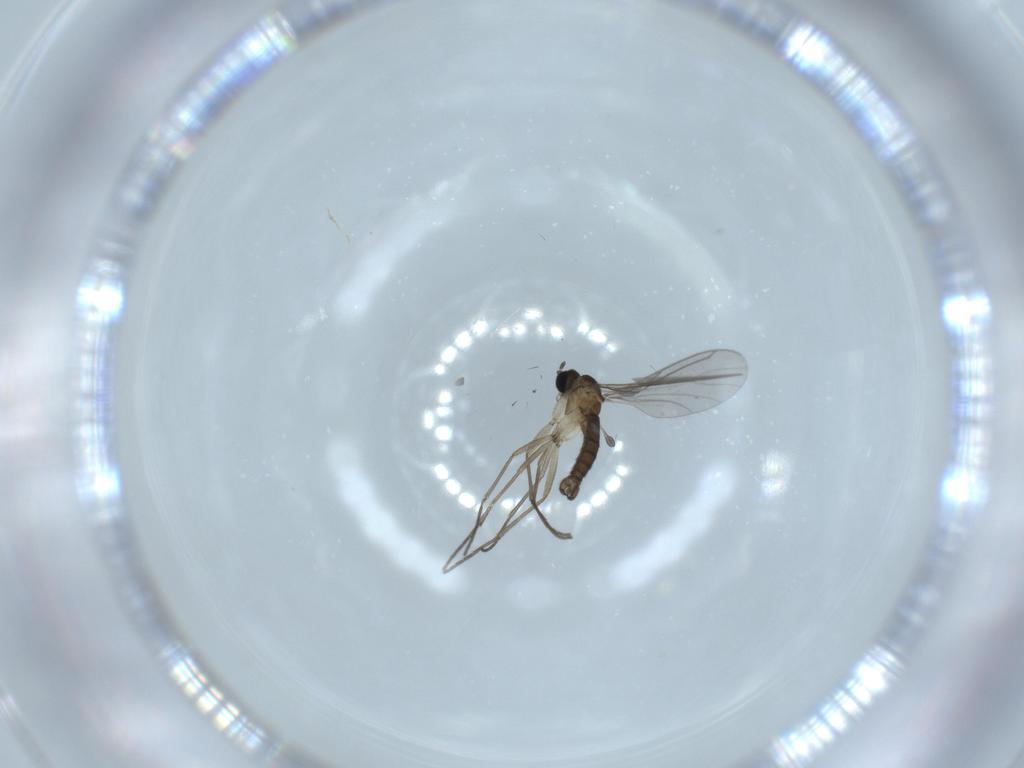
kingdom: Animalia
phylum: Arthropoda
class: Insecta
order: Diptera
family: Sciaridae
